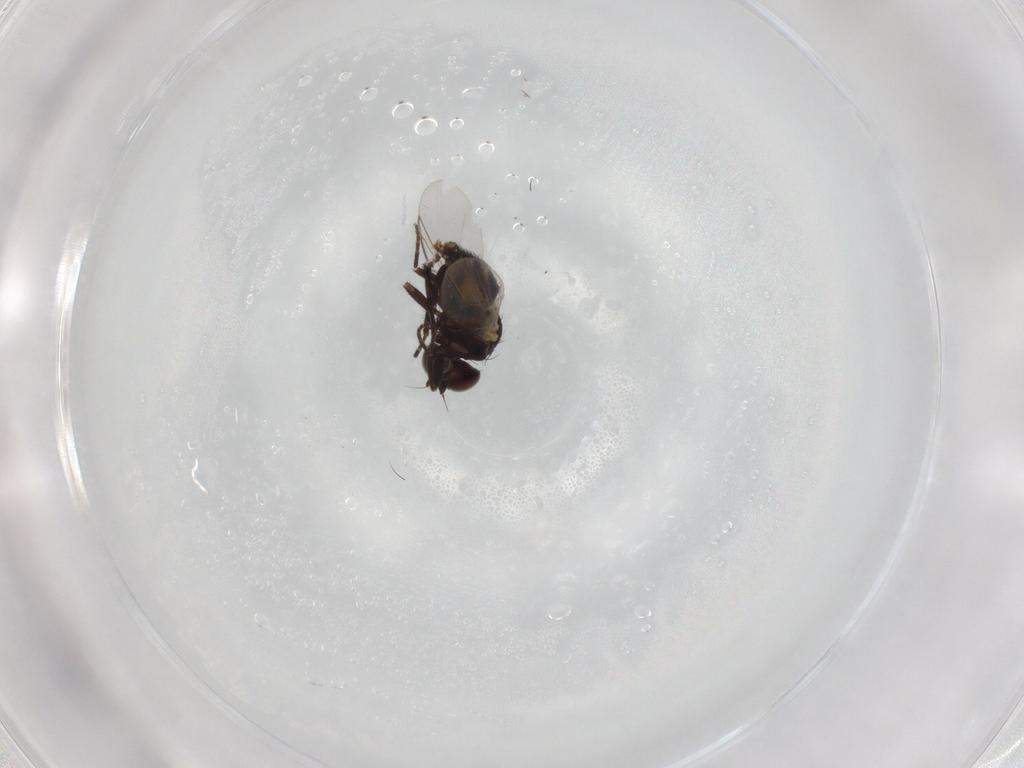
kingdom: Animalia
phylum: Arthropoda
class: Insecta
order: Diptera
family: Agromyzidae
